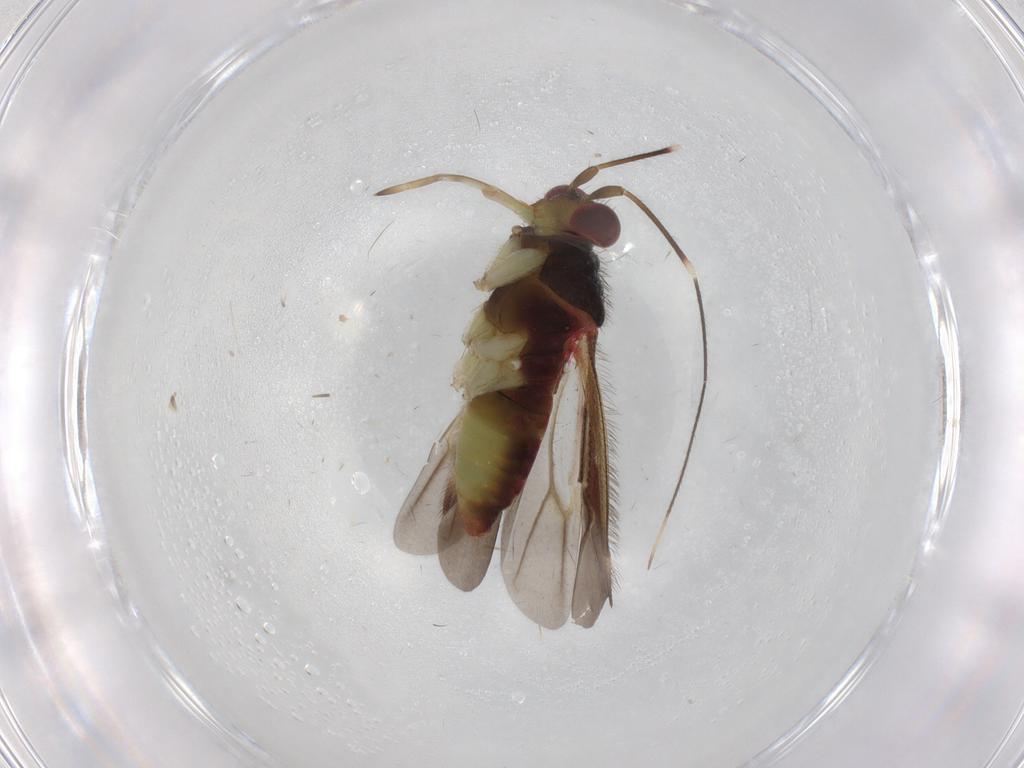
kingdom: Animalia
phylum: Arthropoda
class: Insecta
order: Hemiptera
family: Miridae
